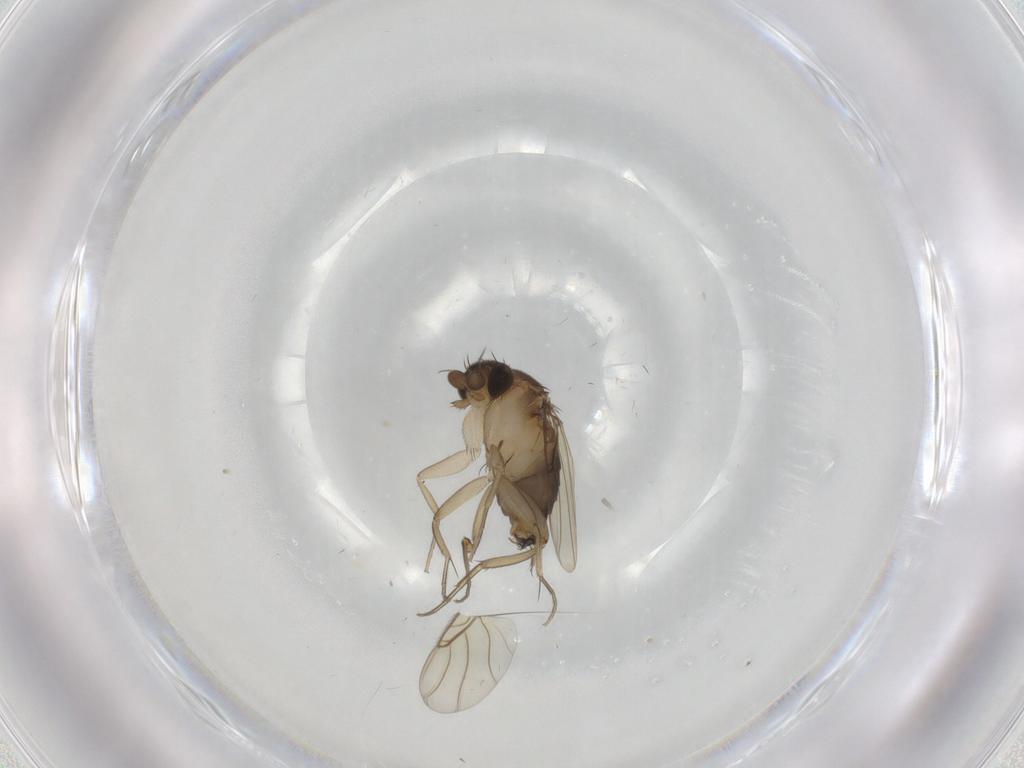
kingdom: Animalia
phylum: Arthropoda
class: Insecta
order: Diptera
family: Phoridae
